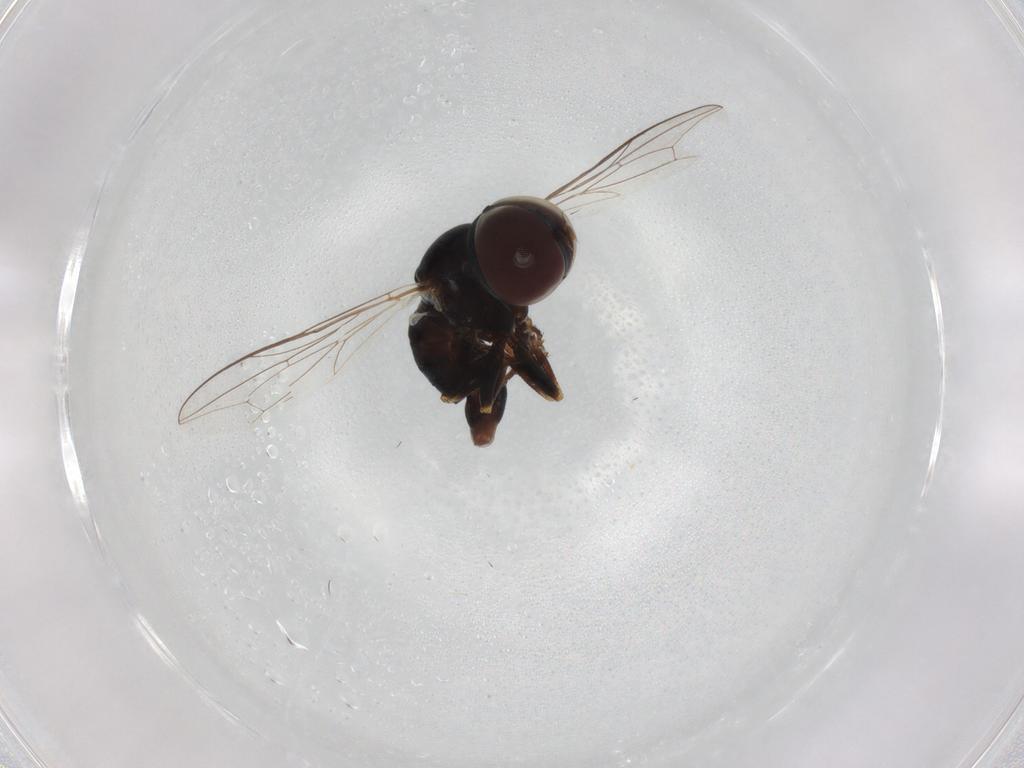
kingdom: Animalia
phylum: Arthropoda
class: Insecta
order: Diptera
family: Pipunculidae
